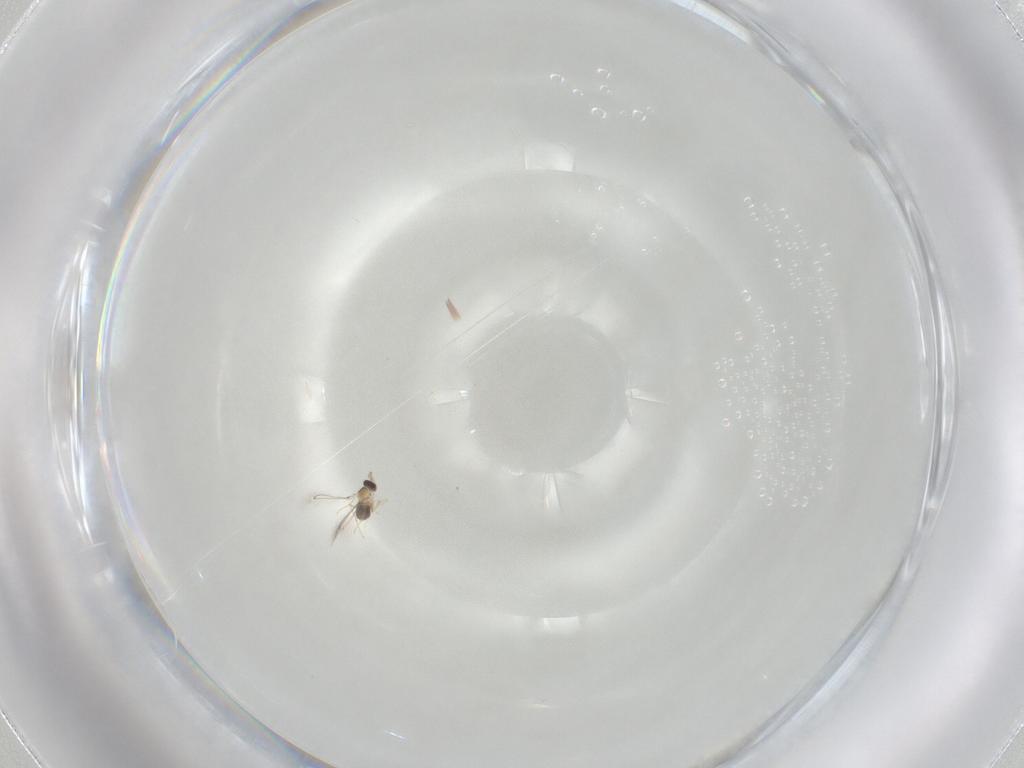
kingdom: Animalia
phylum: Arthropoda
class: Insecta
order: Hymenoptera
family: Mymaridae
